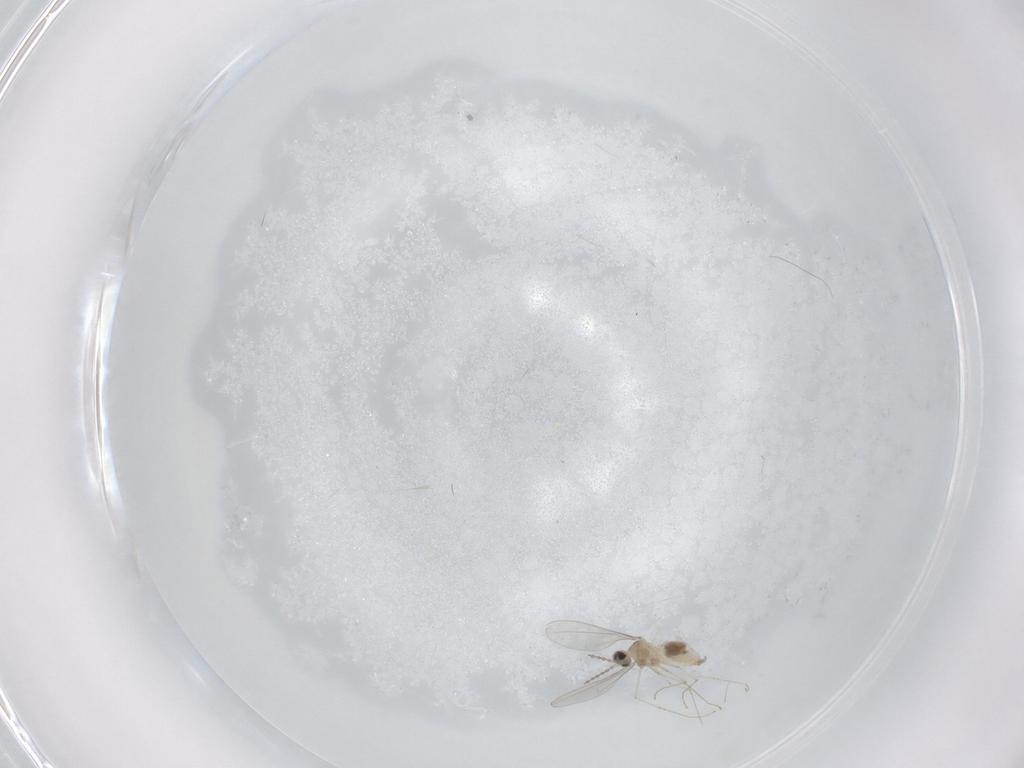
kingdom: Animalia
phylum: Arthropoda
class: Insecta
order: Diptera
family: Cecidomyiidae
